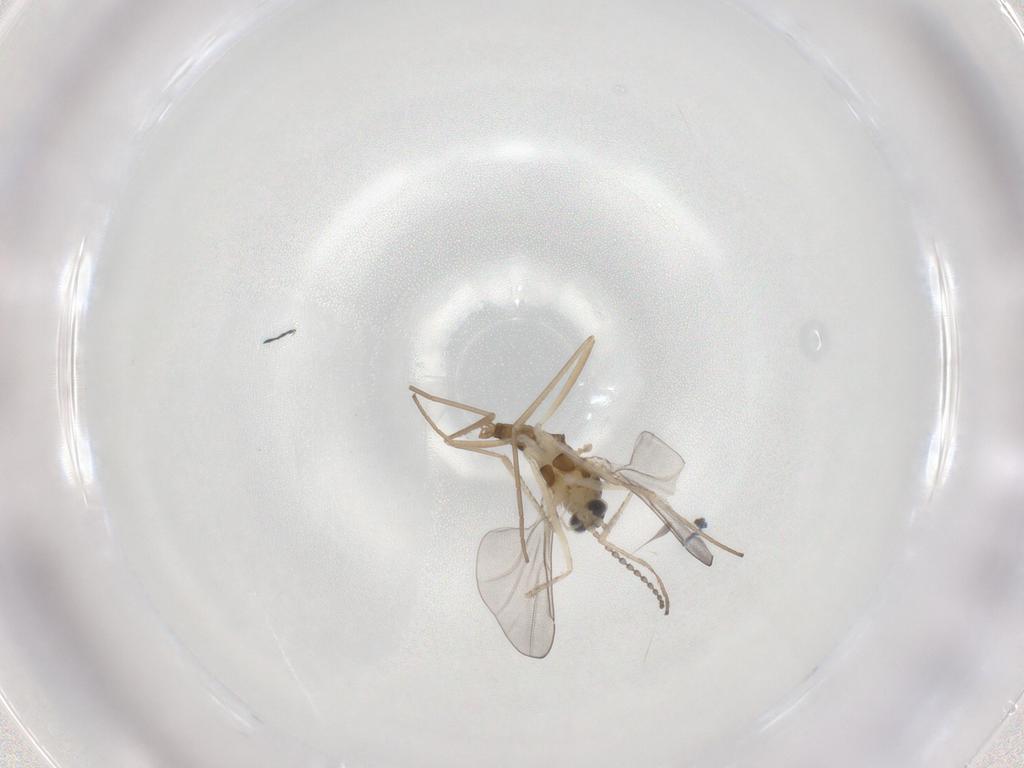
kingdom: Animalia
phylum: Arthropoda
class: Insecta
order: Diptera
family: Cecidomyiidae
